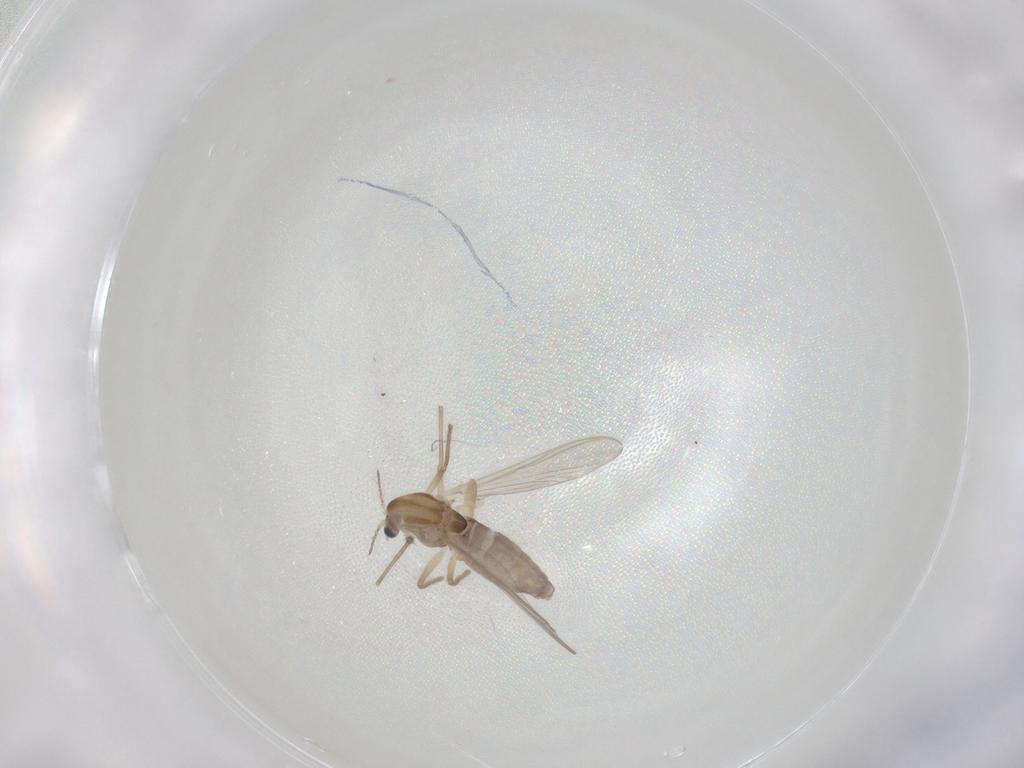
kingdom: Animalia
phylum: Arthropoda
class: Insecta
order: Diptera
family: Chironomidae
